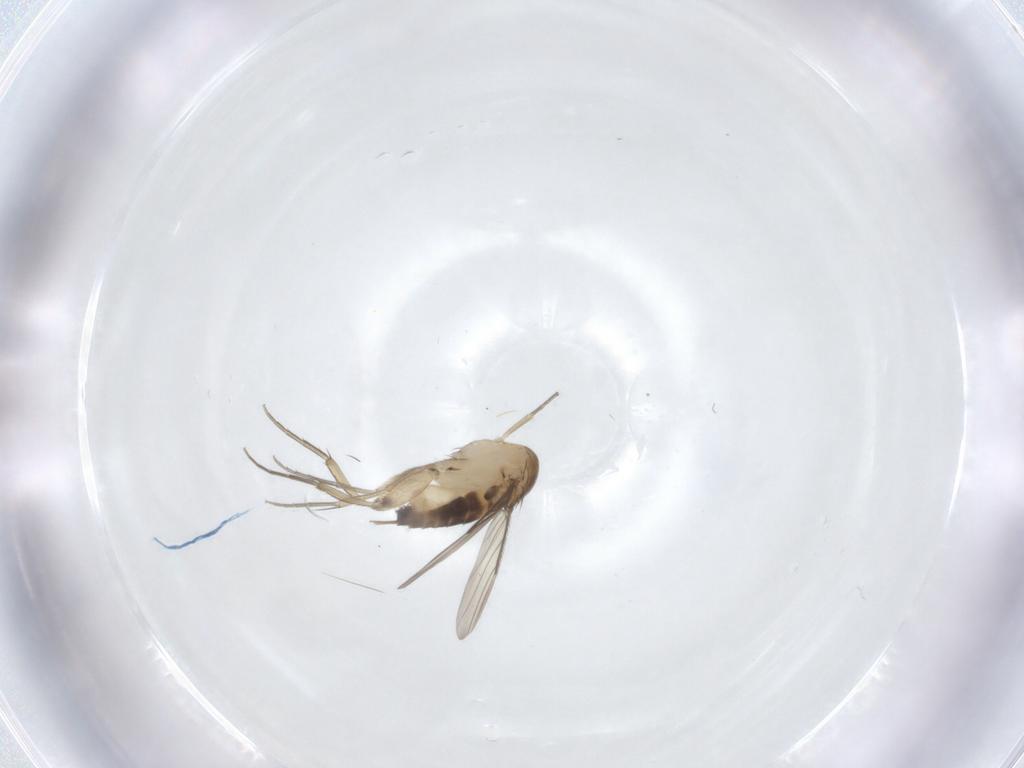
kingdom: Animalia
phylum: Arthropoda
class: Insecta
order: Diptera
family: Phoridae
